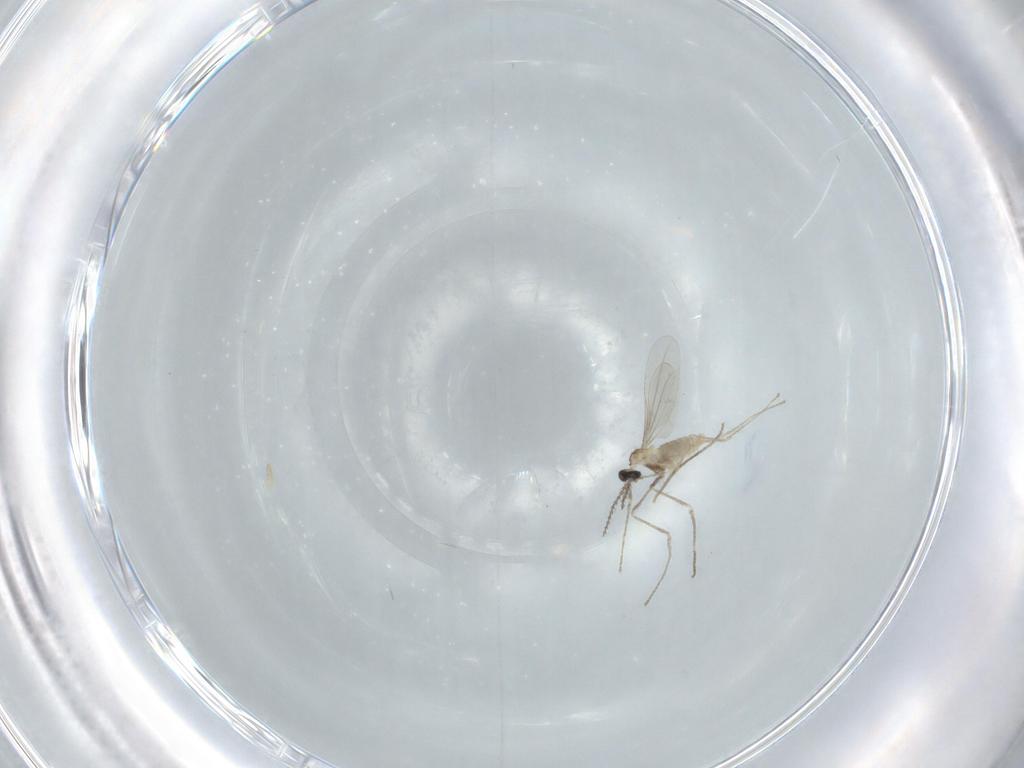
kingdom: Animalia
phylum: Arthropoda
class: Insecta
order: Diptera
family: Cecidomyiidae
